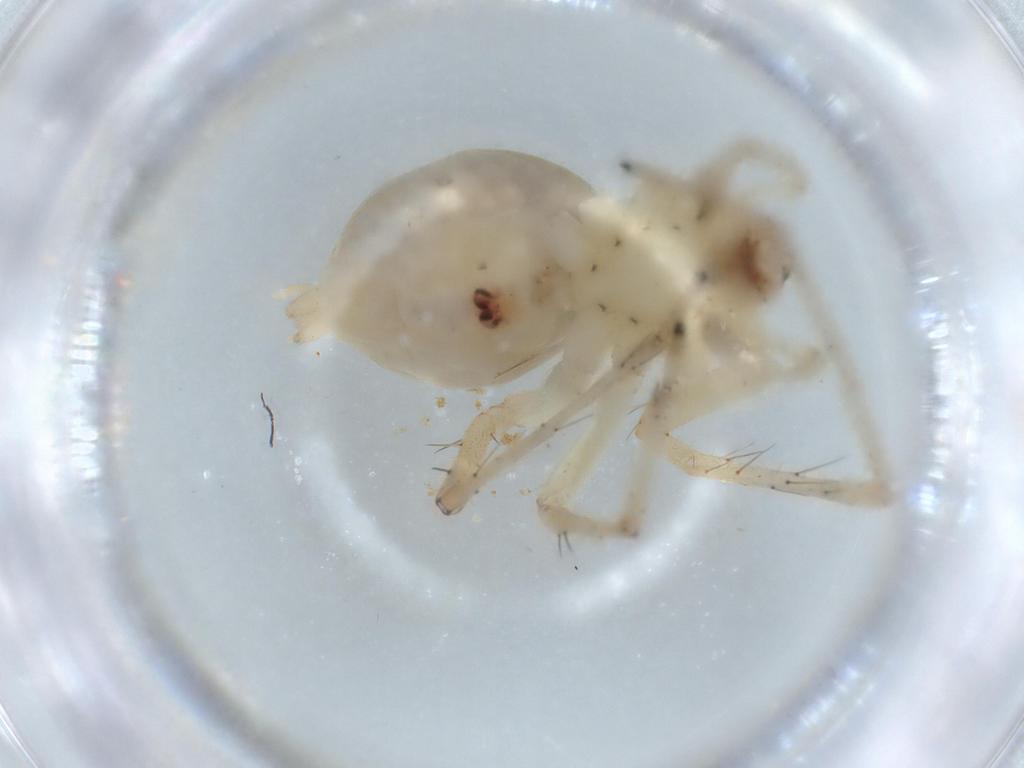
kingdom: Animalia
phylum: Arthropoda
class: Arachnida
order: Araneae
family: Anyphaenidae
